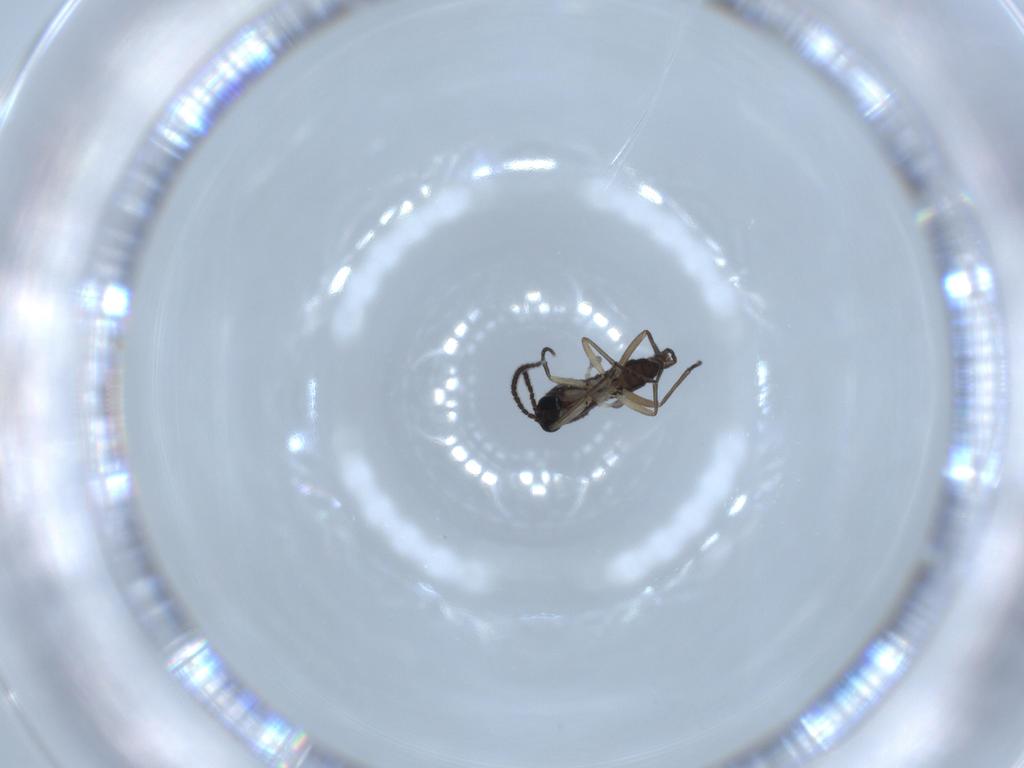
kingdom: Animalia
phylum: Arthropoda
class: Insecta
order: Diptera
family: Sciaridae
